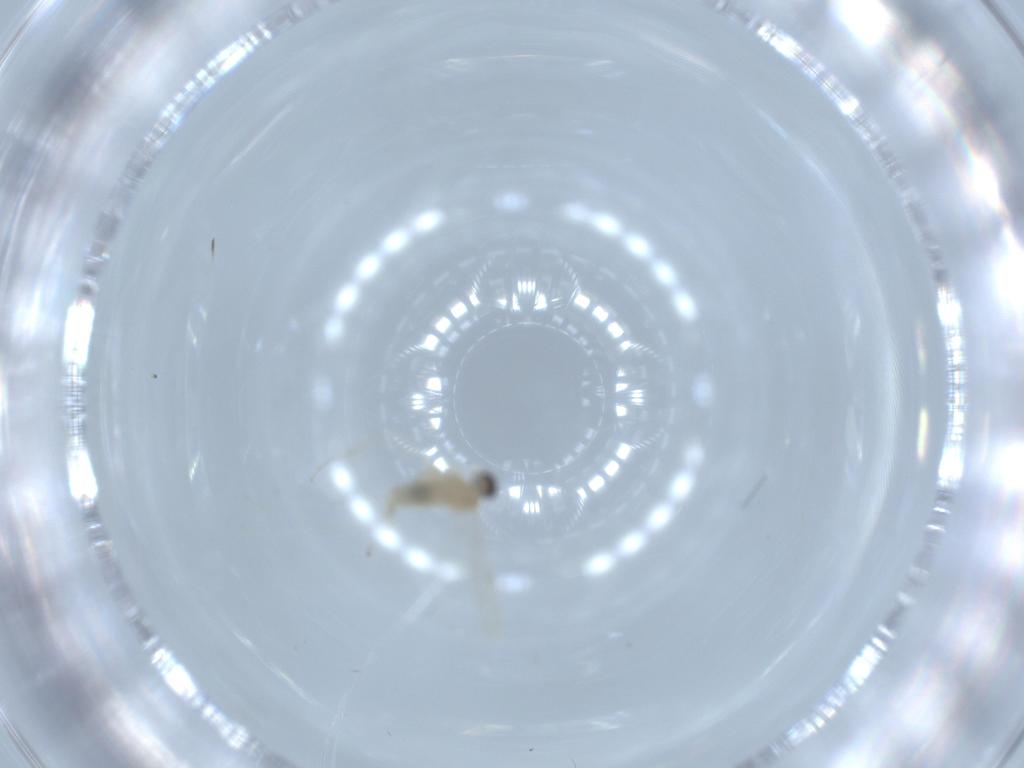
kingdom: Animalia
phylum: Arthropoda
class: Insecta
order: Diptera
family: Cecidomyiidae
